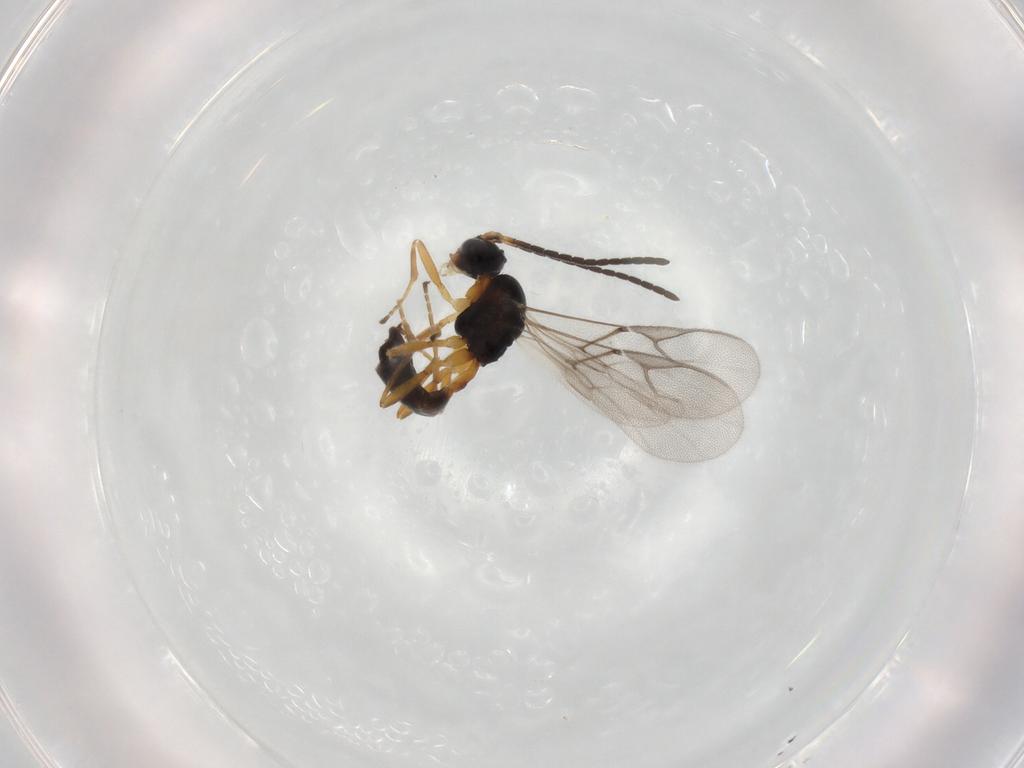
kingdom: Animalia
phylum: Arthropoda
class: Insecta
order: Hymenoptera
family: Braconidae
